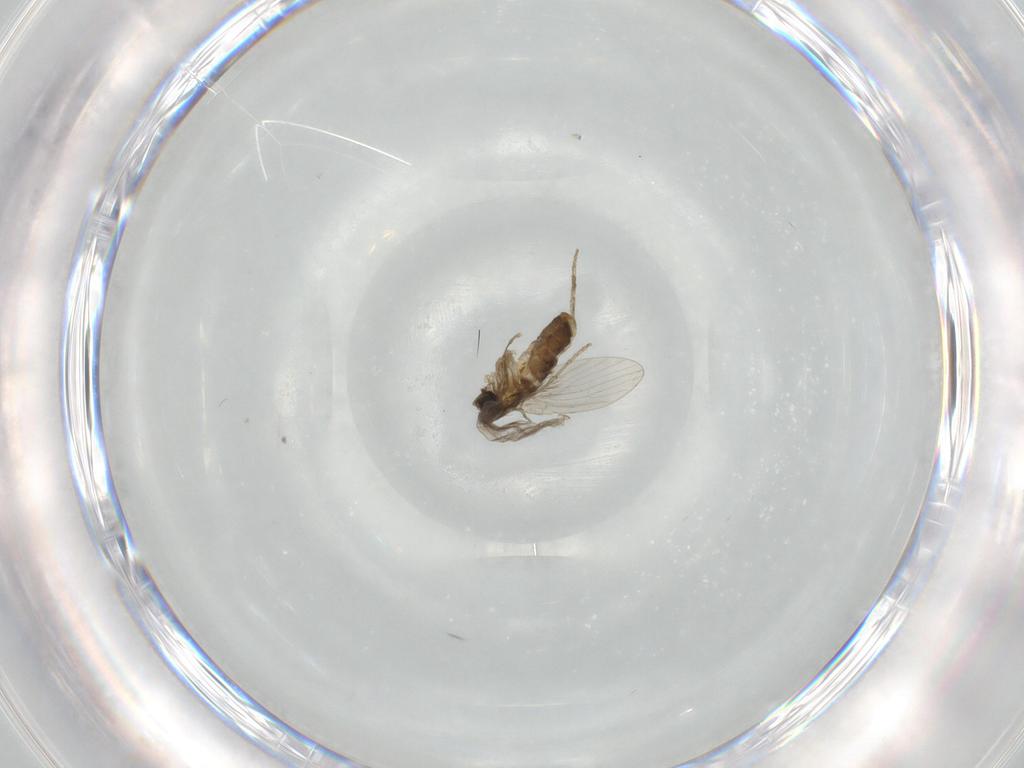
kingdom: Animalia
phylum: Arthropoda
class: Insecta
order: Diptera
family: Psychodidae
